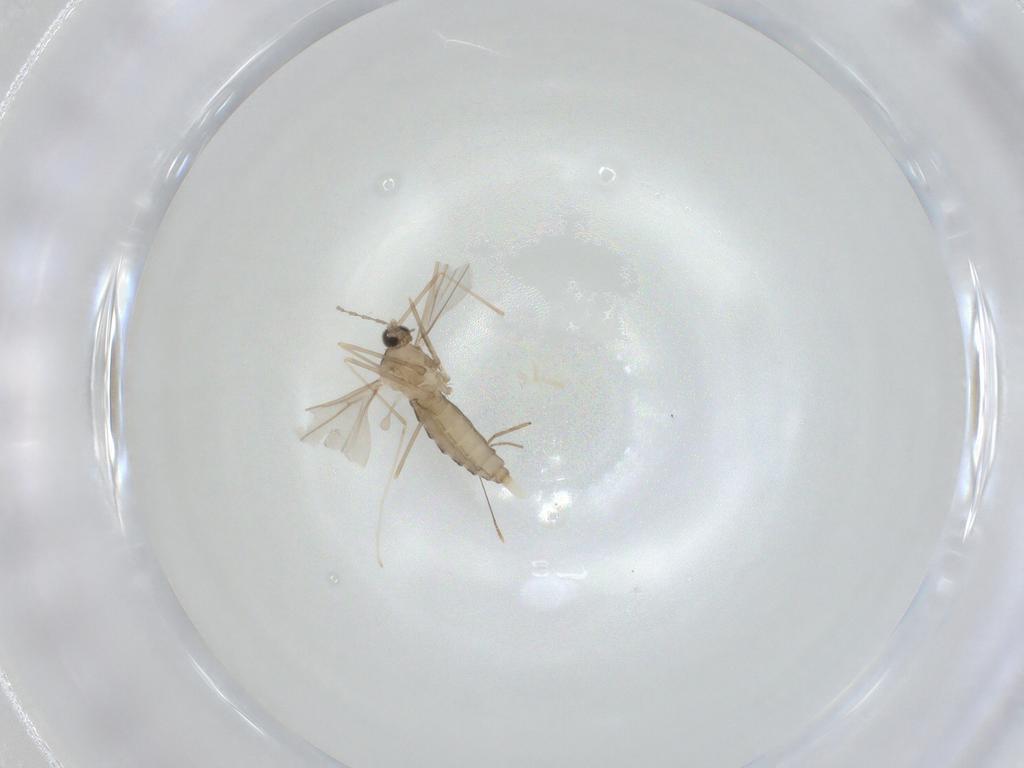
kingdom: Animalia
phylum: Arthropoda
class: Insecta
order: Diptera
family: Cecidomyiidae
